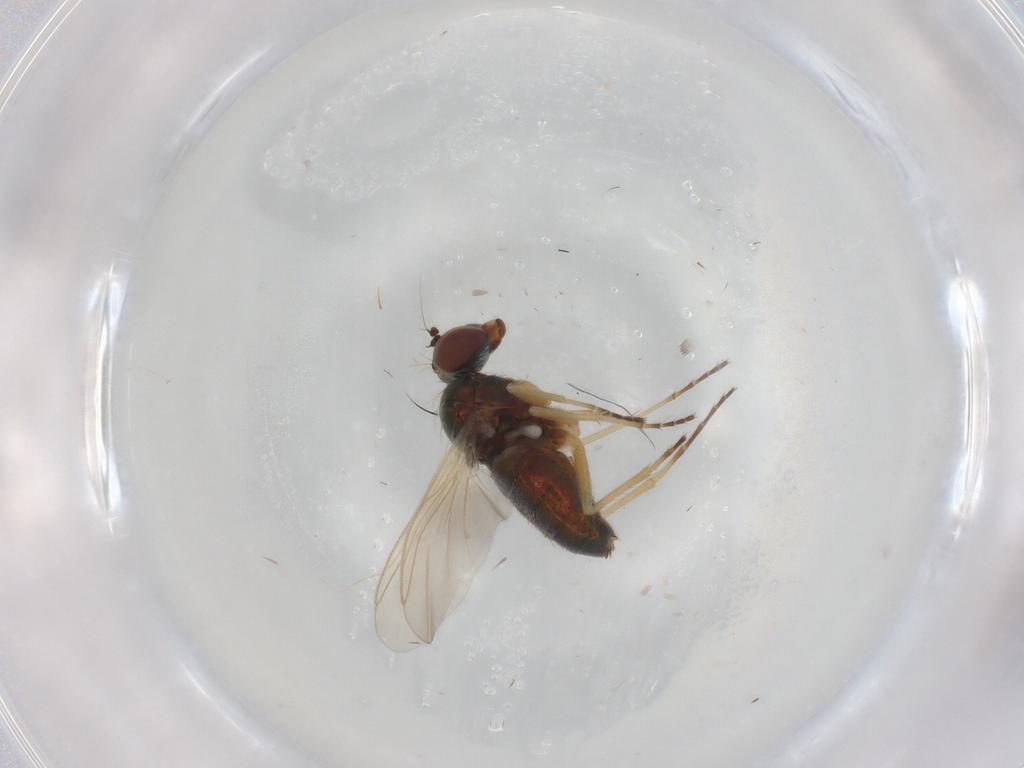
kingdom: Animalia
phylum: Arthropoda
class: Insecta
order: Diptera
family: Dolichopodidae
